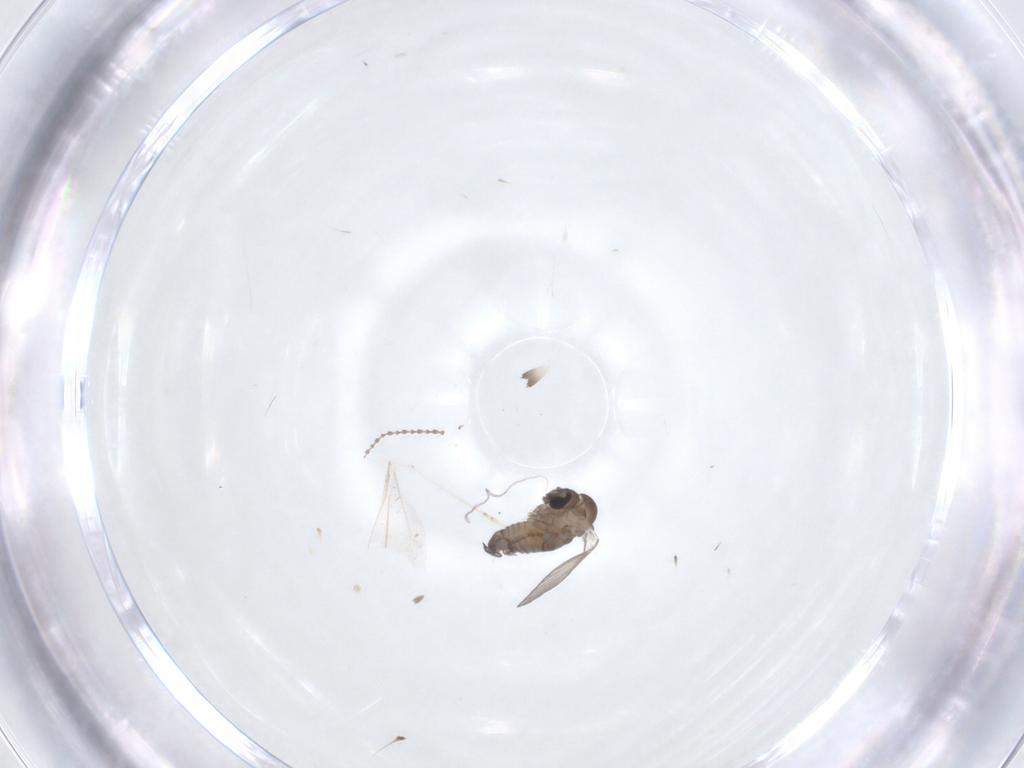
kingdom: Animalia
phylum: Arthropoda
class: Insecta
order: Diptera
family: Cecidomyiidae
